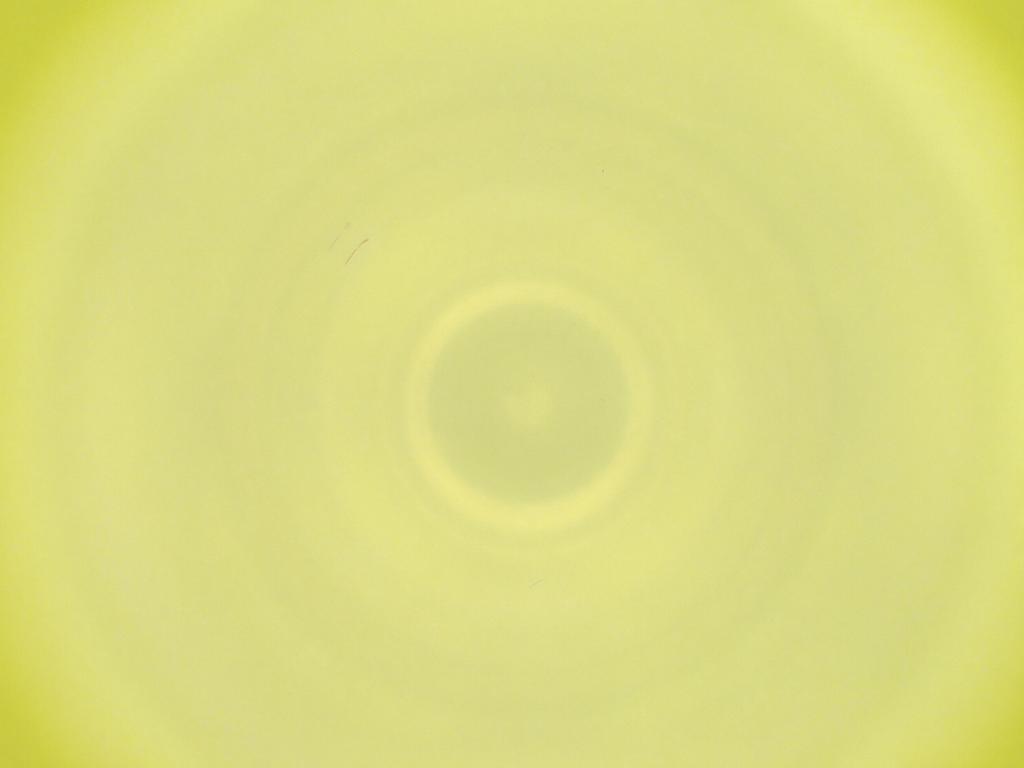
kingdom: Animalia
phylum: Arthropoda
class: Insecta
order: Diptera
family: Cecidomyiidae
